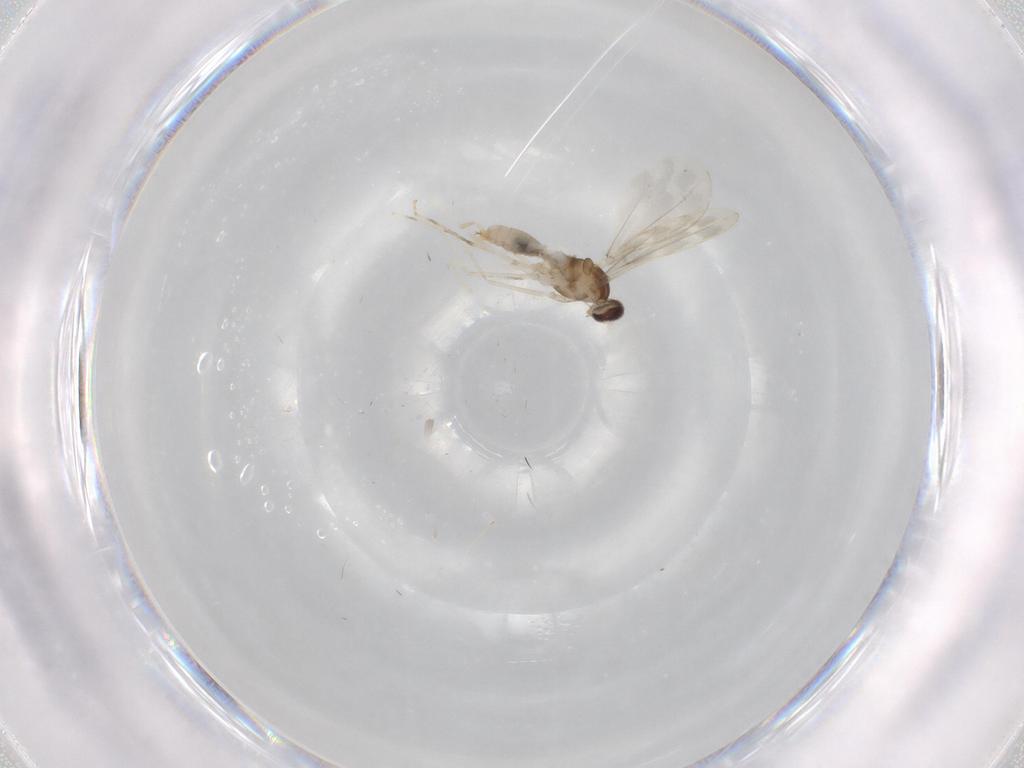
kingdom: Animalia
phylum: Arthropoda
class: Insecta
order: Diptera
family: Cecidomyiidae
